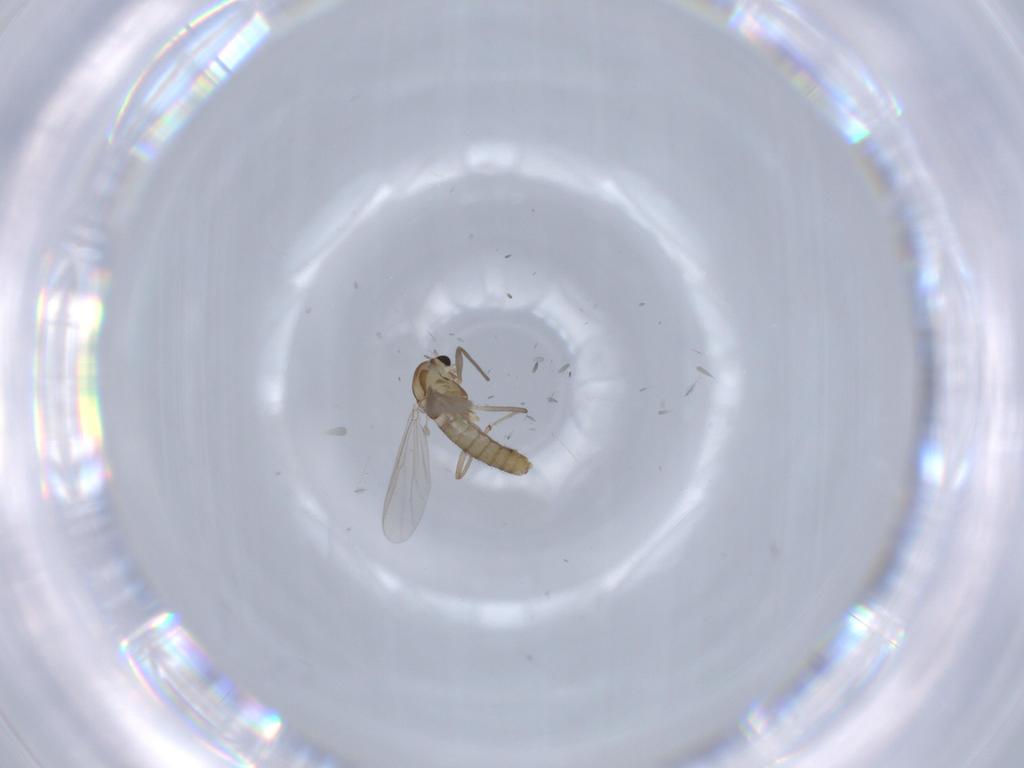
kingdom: Animalia
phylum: Arthropoda
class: Insecta
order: Diptera
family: Chironomidae
